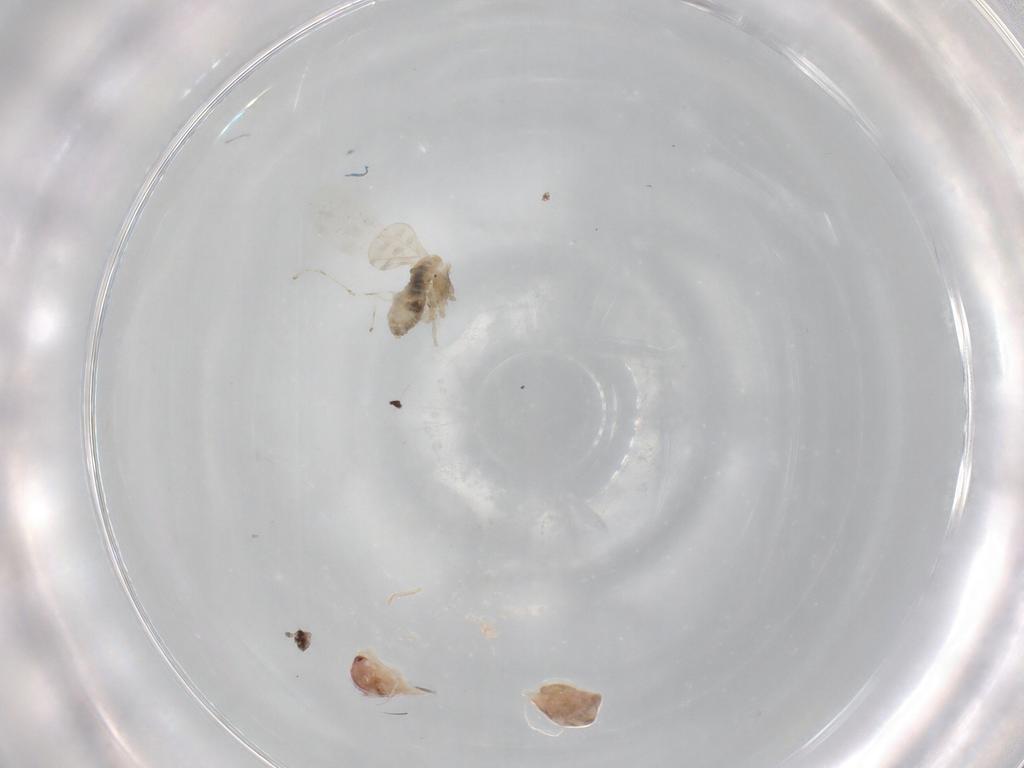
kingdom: Animalia
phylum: Arthropoda
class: Insecta
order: Diptera
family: Cecidomyiidae
